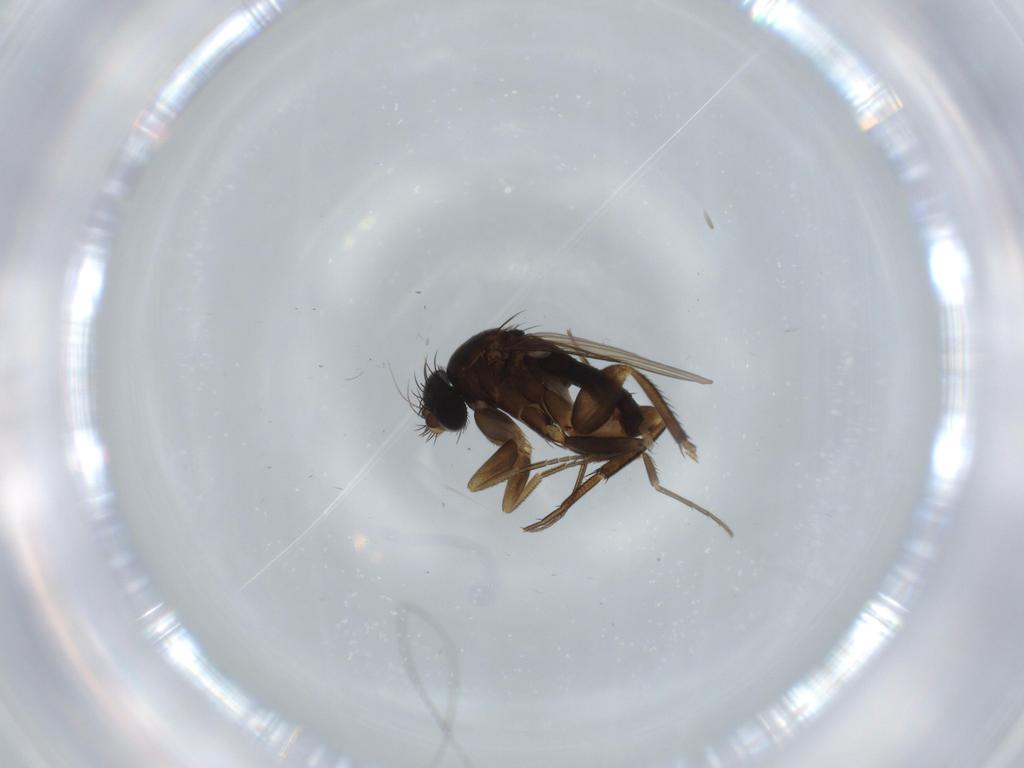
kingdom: Animalia
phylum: Arthropoda
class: Insecta
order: Diptera
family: Phoridae
